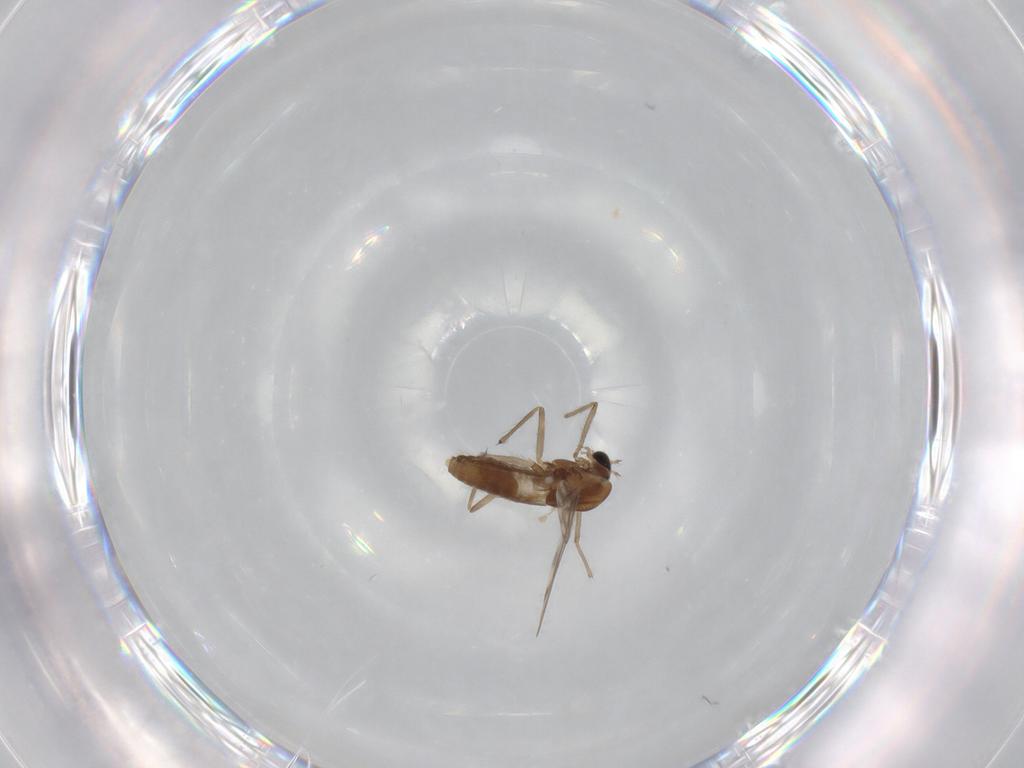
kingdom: Animalia
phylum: Arthropoda
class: Insecta
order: Diptera
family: Chironomidae
